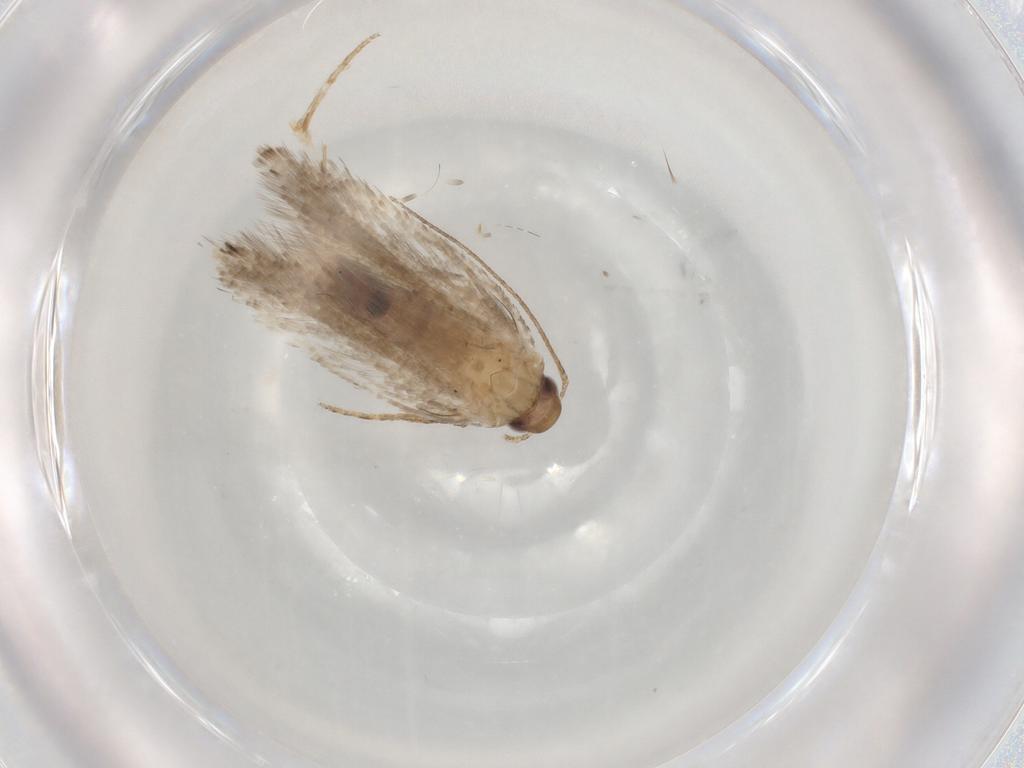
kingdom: Animalia
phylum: Arthropoda
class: Insecta
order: Lepidoptera
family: Gelechiidae
